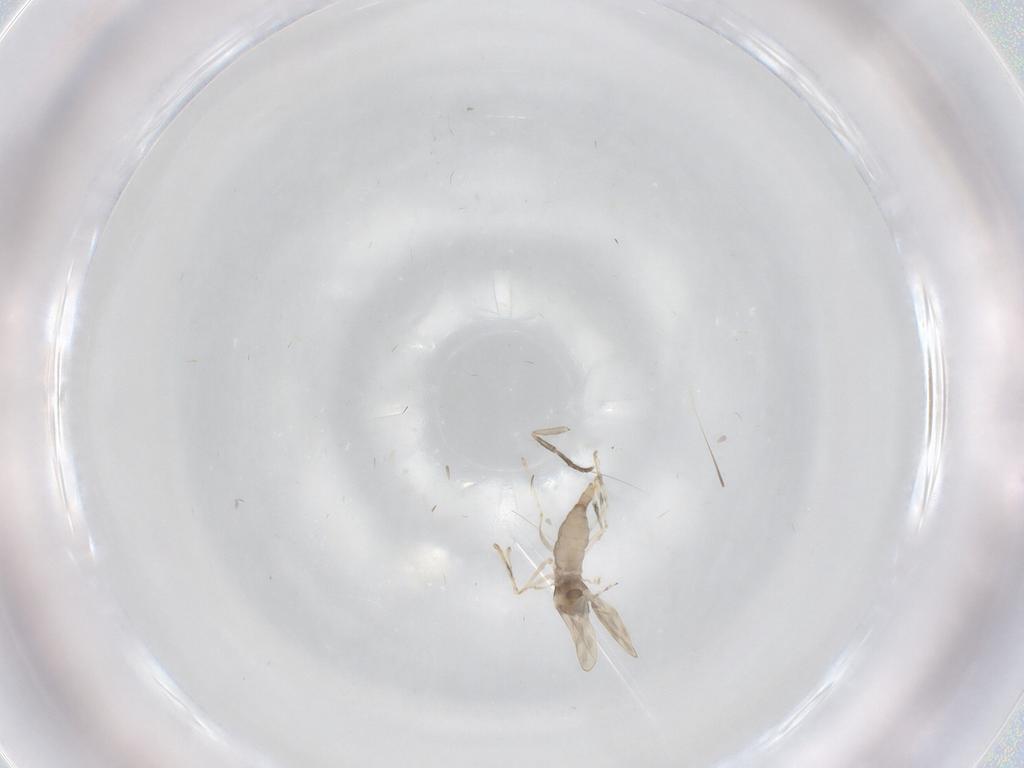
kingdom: Animalia
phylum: Arthropoda
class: Insecta
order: Diptera
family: Cecidomyiidae
